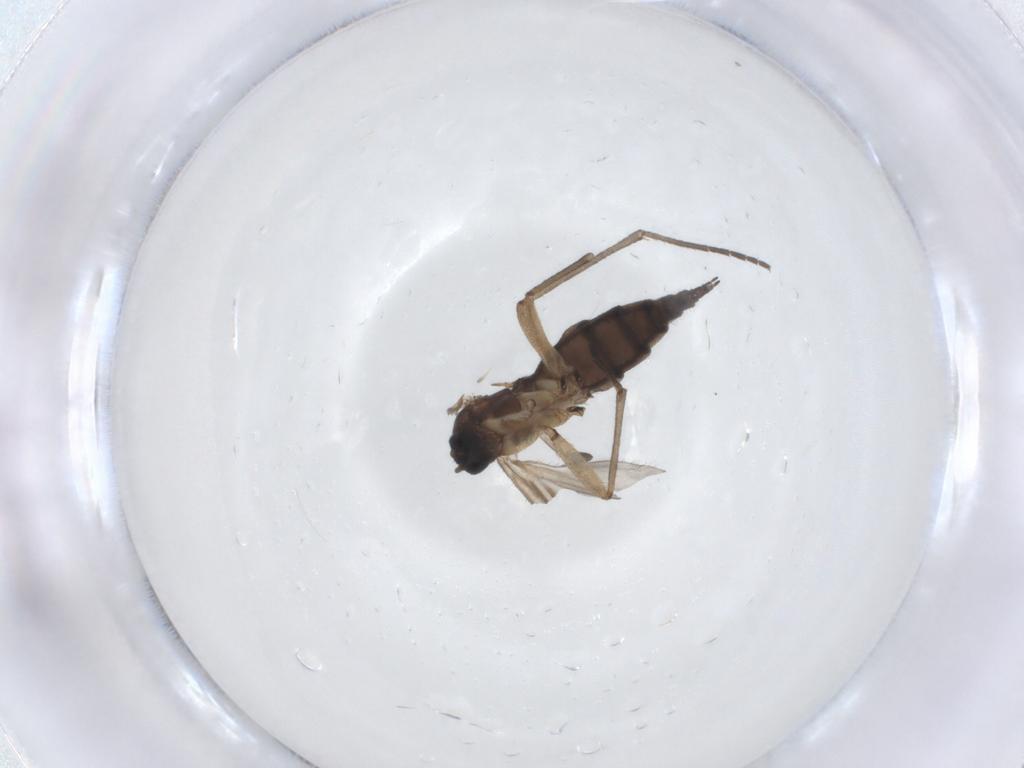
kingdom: Animalia
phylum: Arthropoda
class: Insecta
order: Diptera
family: Sciaridae
